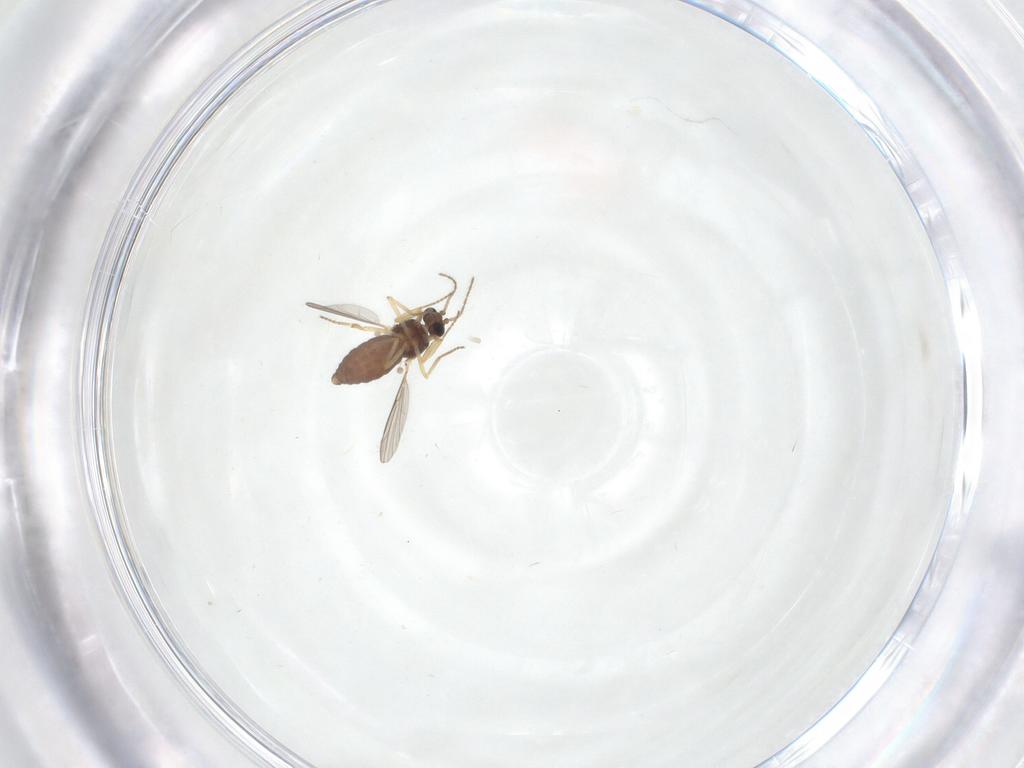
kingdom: Animalia
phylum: Arthropoda
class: Insecta
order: Diptera
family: Ceratopogonidae
